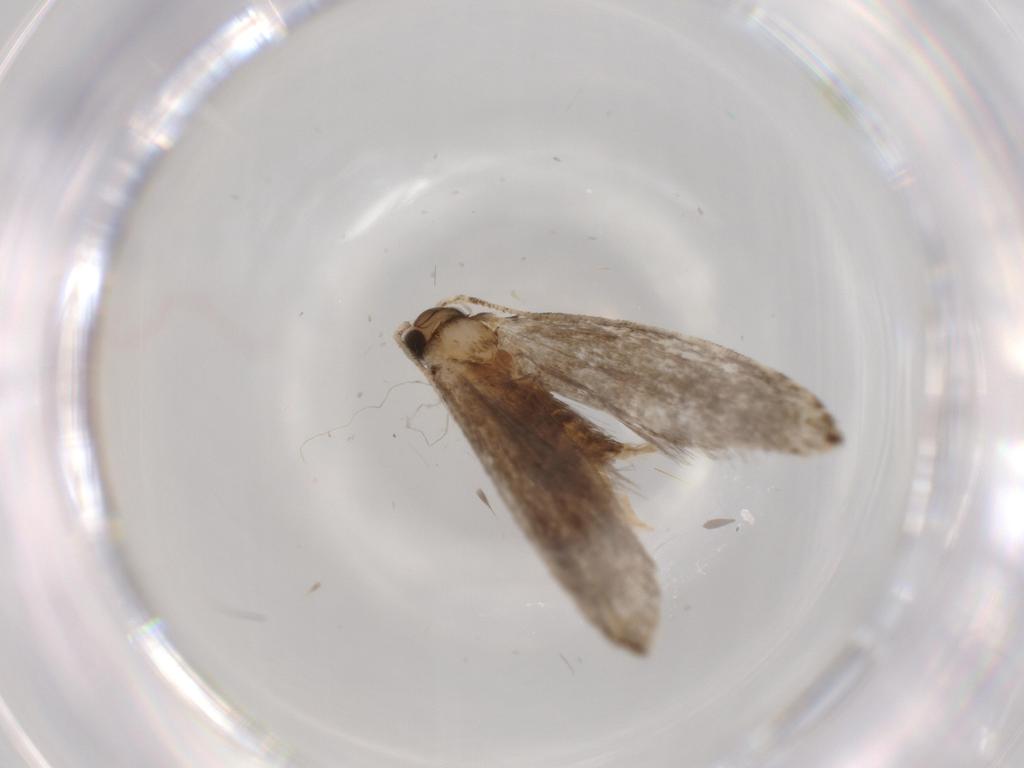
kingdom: Animalia
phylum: Arthropoda
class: Insecta
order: Lepidoptera
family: Tineidae
